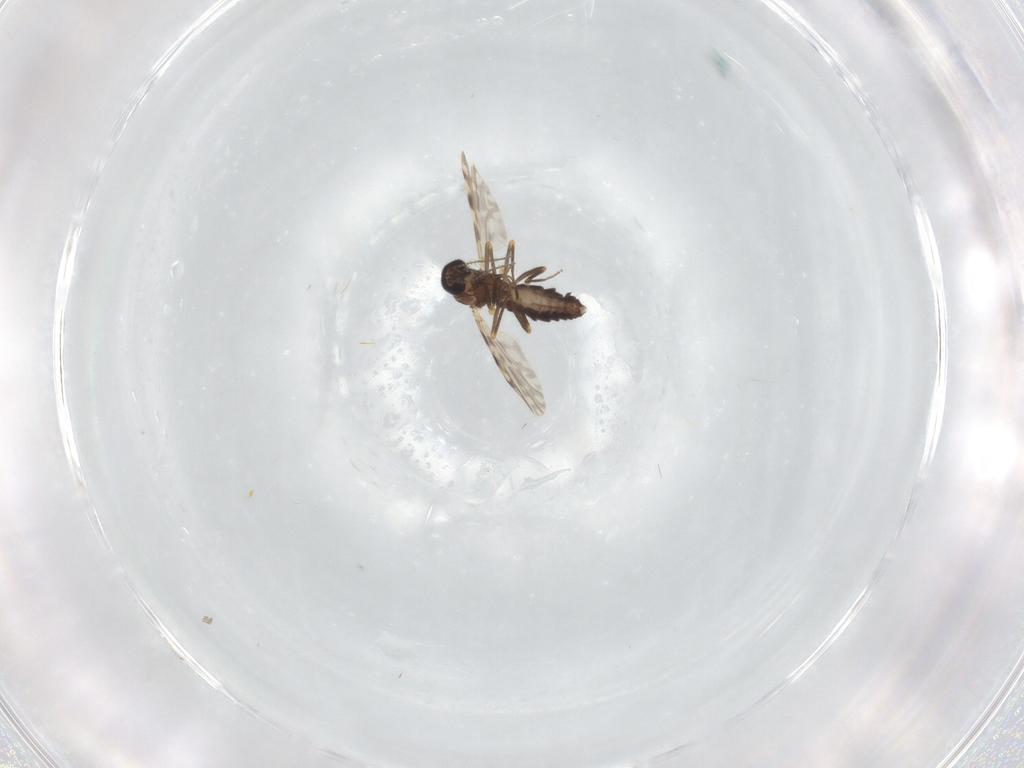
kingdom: Animalia
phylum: Arthropoda
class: Insecta
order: Diptera
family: Ceratopogonidae
